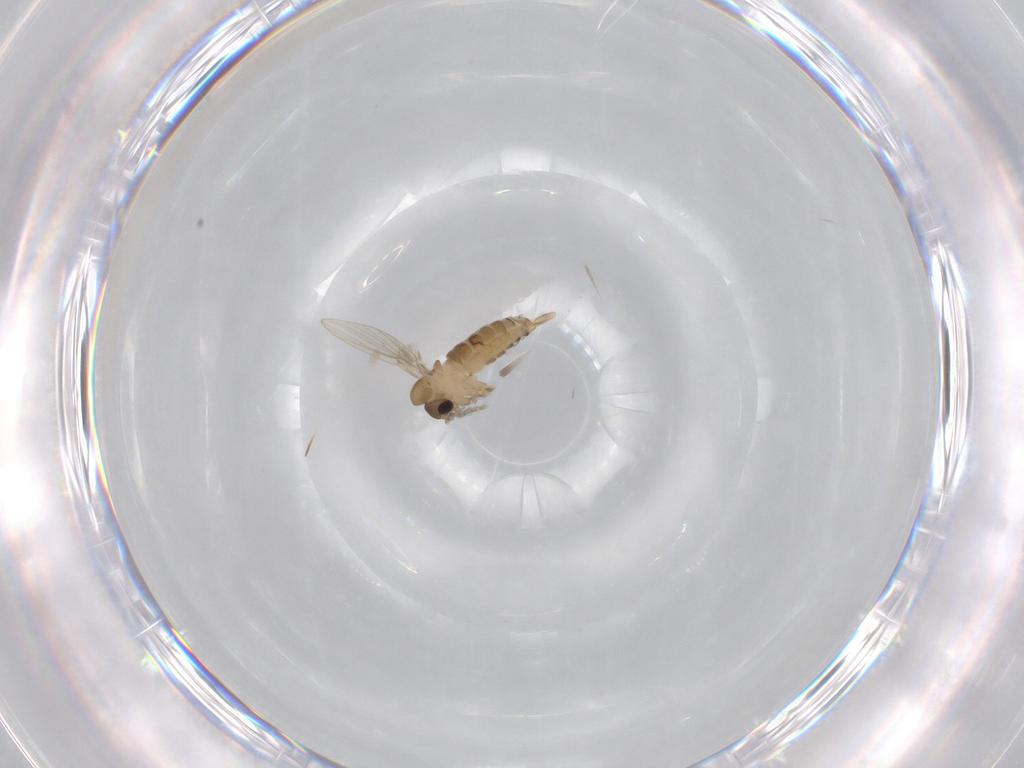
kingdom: Animalia
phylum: Arthropoda
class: Insecta
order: Diptera
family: Psychodidae
